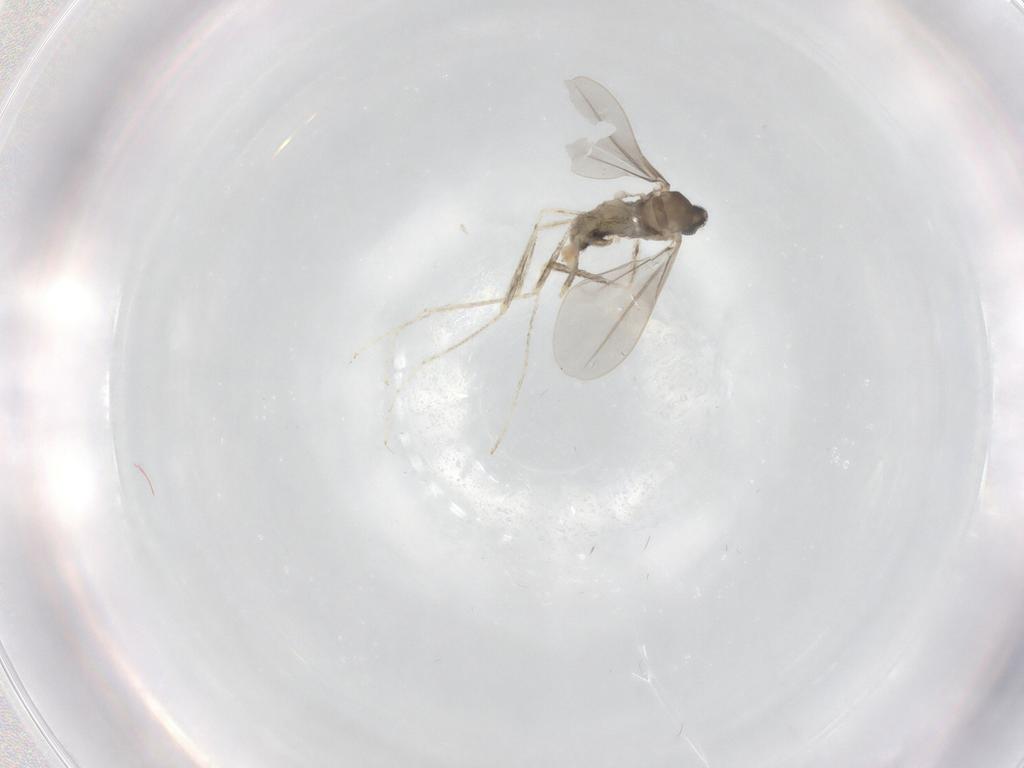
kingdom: Animalia
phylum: Arthropoda
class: Insecta
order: Diptera
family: Cecidomyiidae
